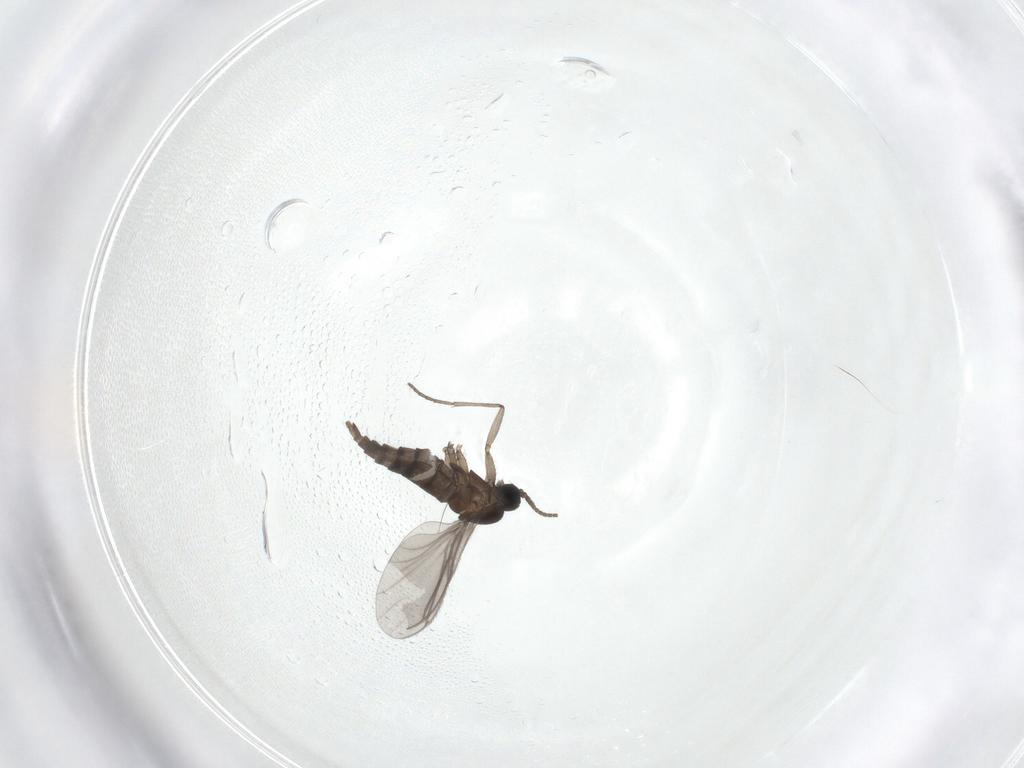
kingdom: Animalia
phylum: Arthropoda
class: Insecta
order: Diptera
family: Sciaridae
